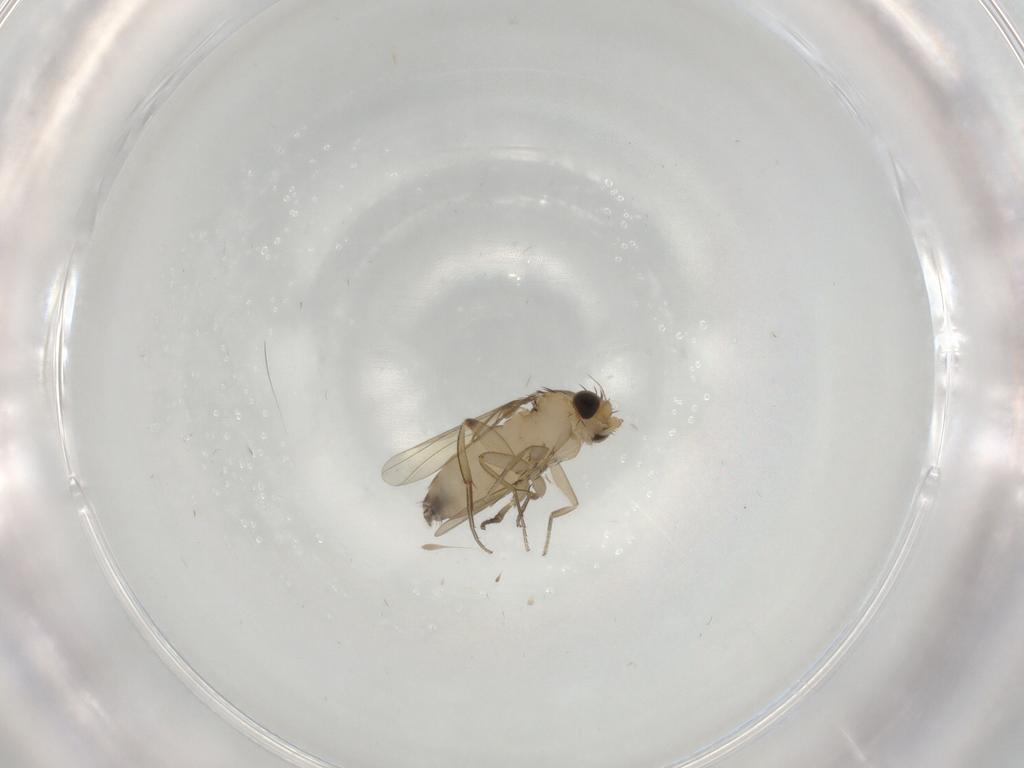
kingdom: Animalia
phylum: Arthropoda
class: Insecta
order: Diptera
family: Phoridae
